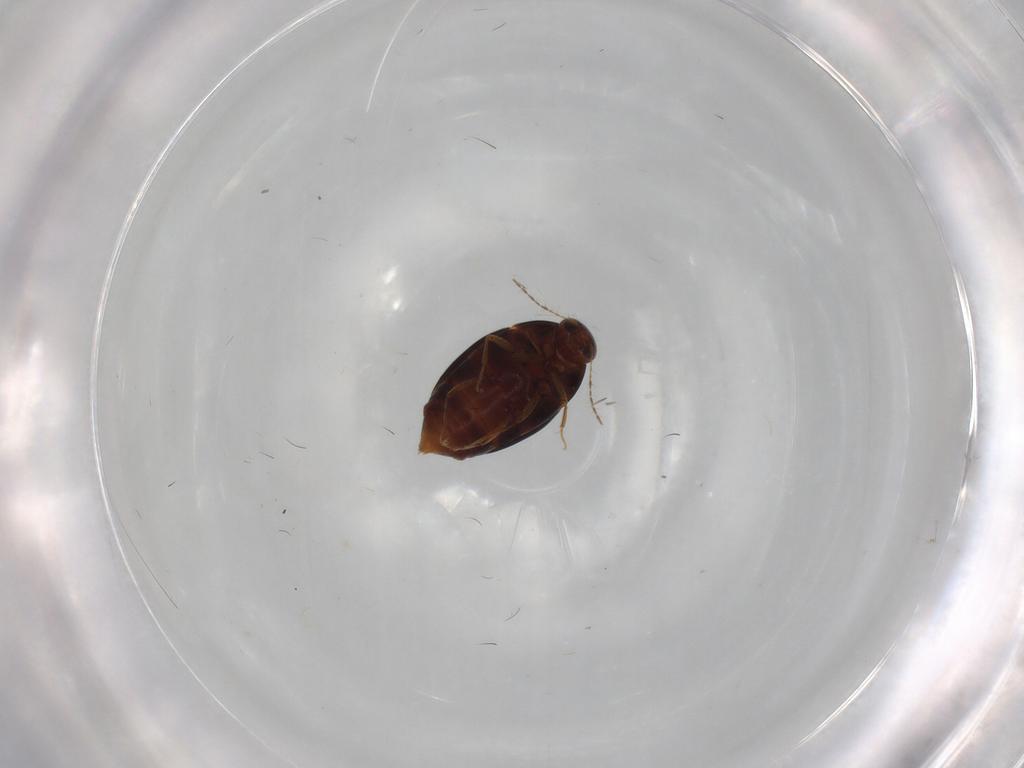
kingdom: Animalia
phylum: Arthropoda
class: Insecta
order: Coleoptera
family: Staphylinidae
